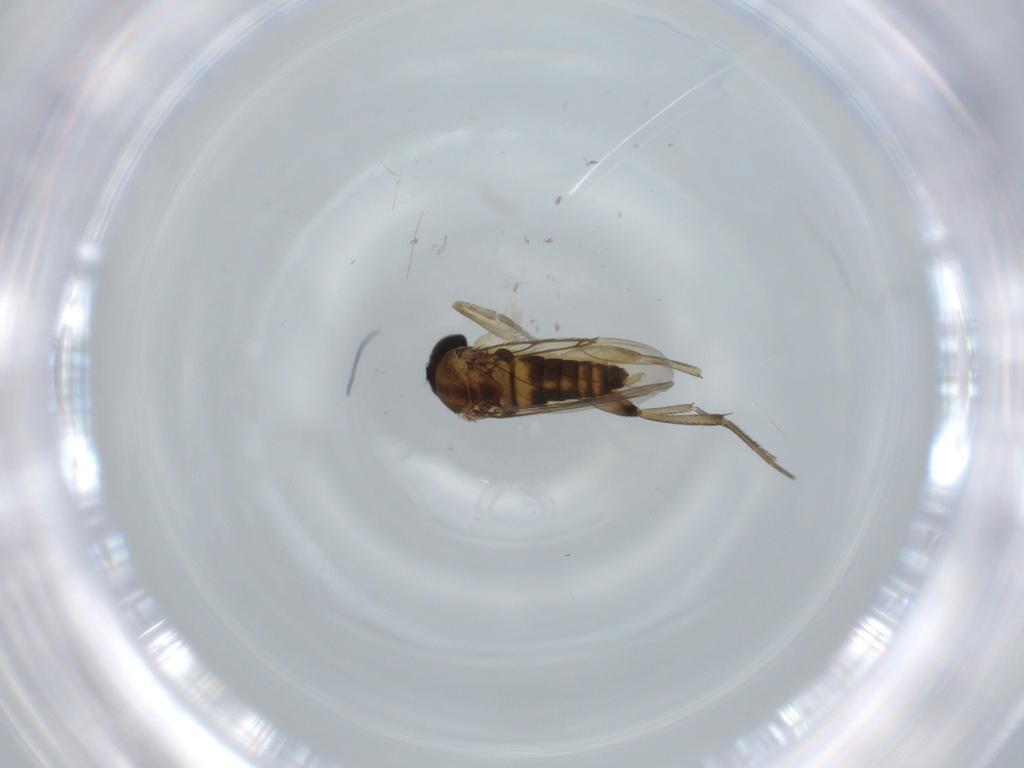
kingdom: Animalia
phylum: Arthropoda
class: Insecta
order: Diptera
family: Phoridae
